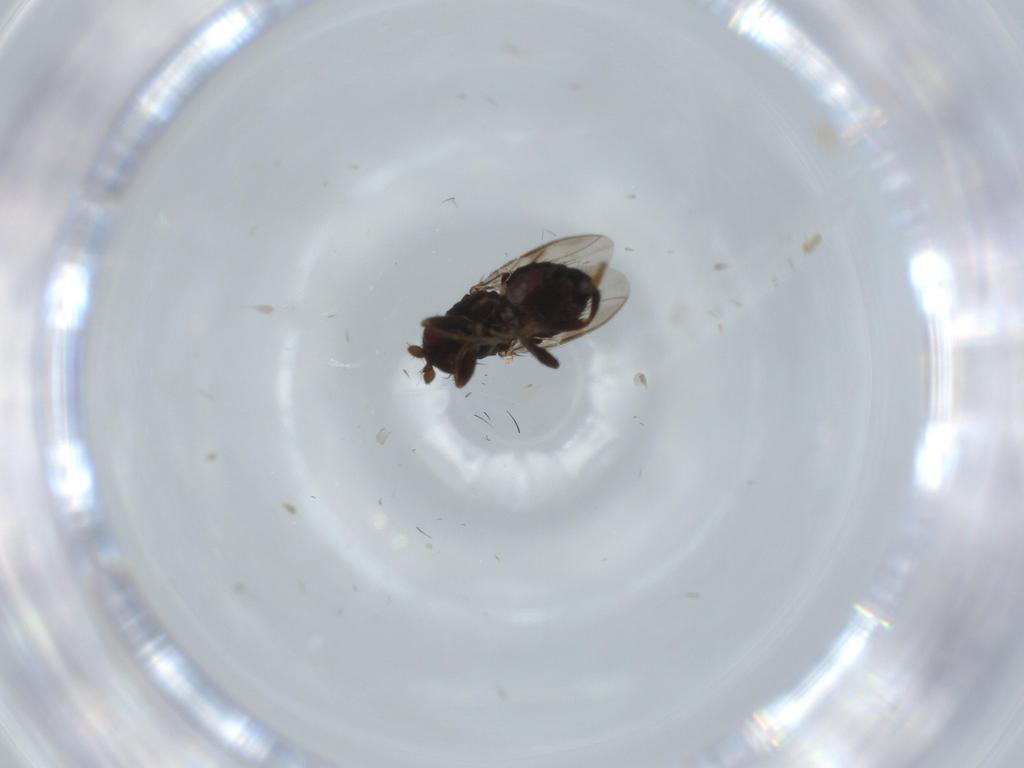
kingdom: Animalia
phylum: Arthropoda
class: Insecta
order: Diptera
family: Sphaeroceridae
